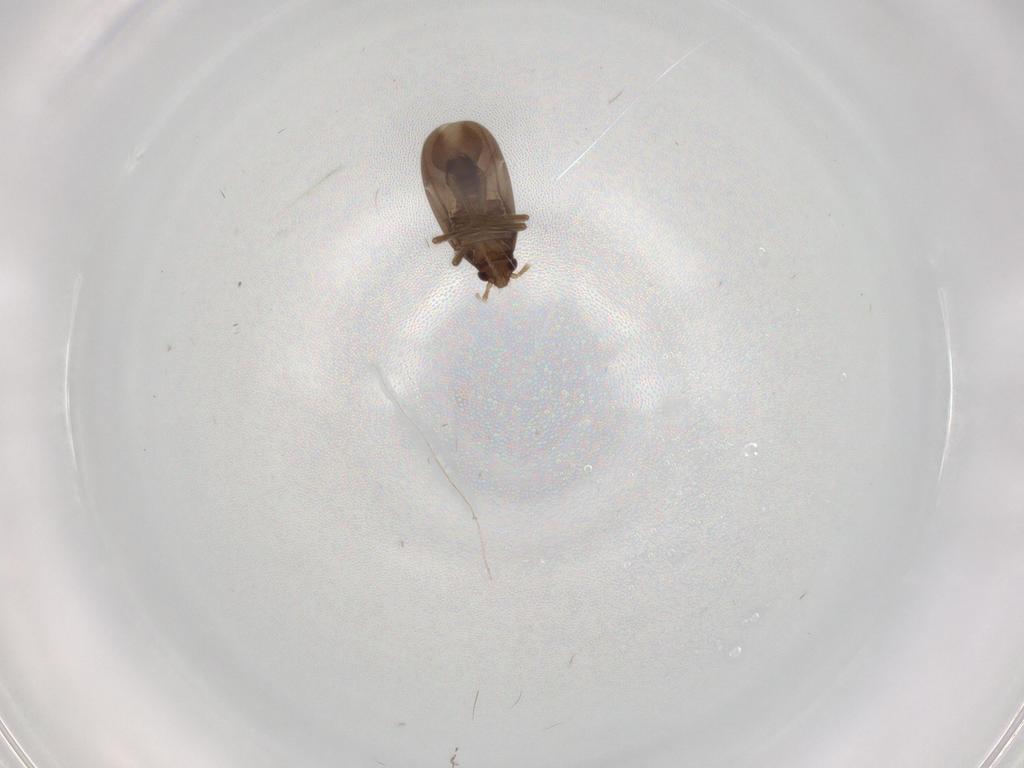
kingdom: Animalia
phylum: Arthropoda
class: Insecta
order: Hemiptera
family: Ceratocombidae
